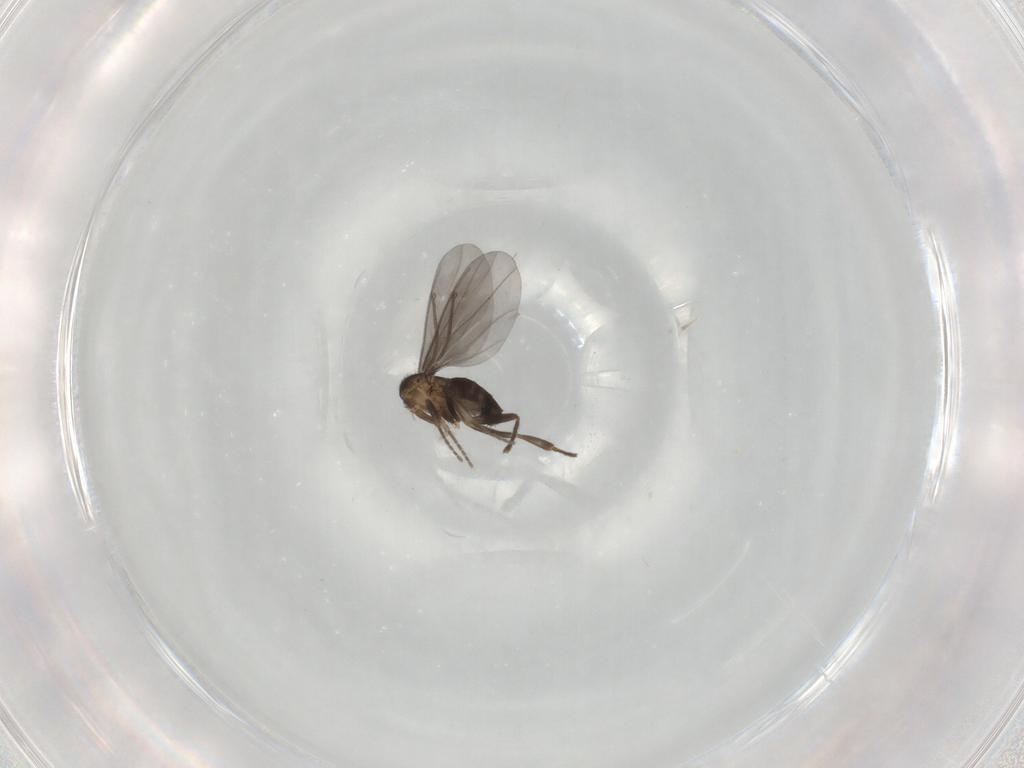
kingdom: Animalia
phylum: Arthropoda
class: Insecta
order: Diptera
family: Phoridae
